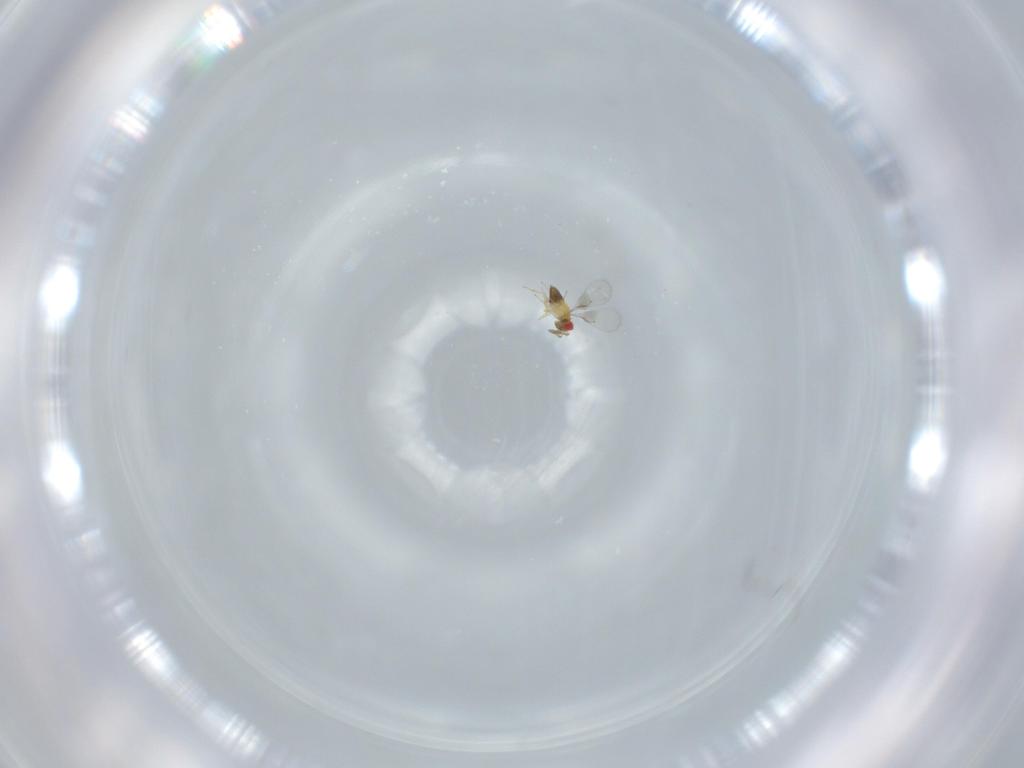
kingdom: Animalia
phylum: Arthropoda
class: Insecta
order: Hymenoptera
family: Trichogrammatidae
